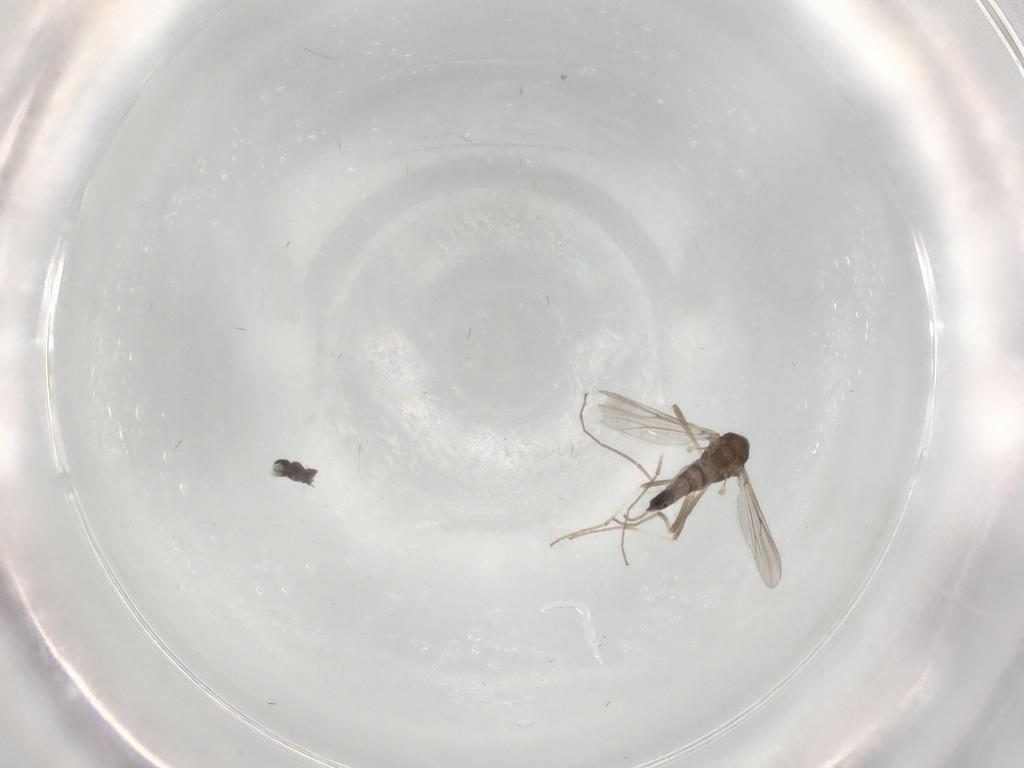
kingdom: Animalia
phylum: Arthropoda
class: Insecta
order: Diptera
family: Chironomidae
